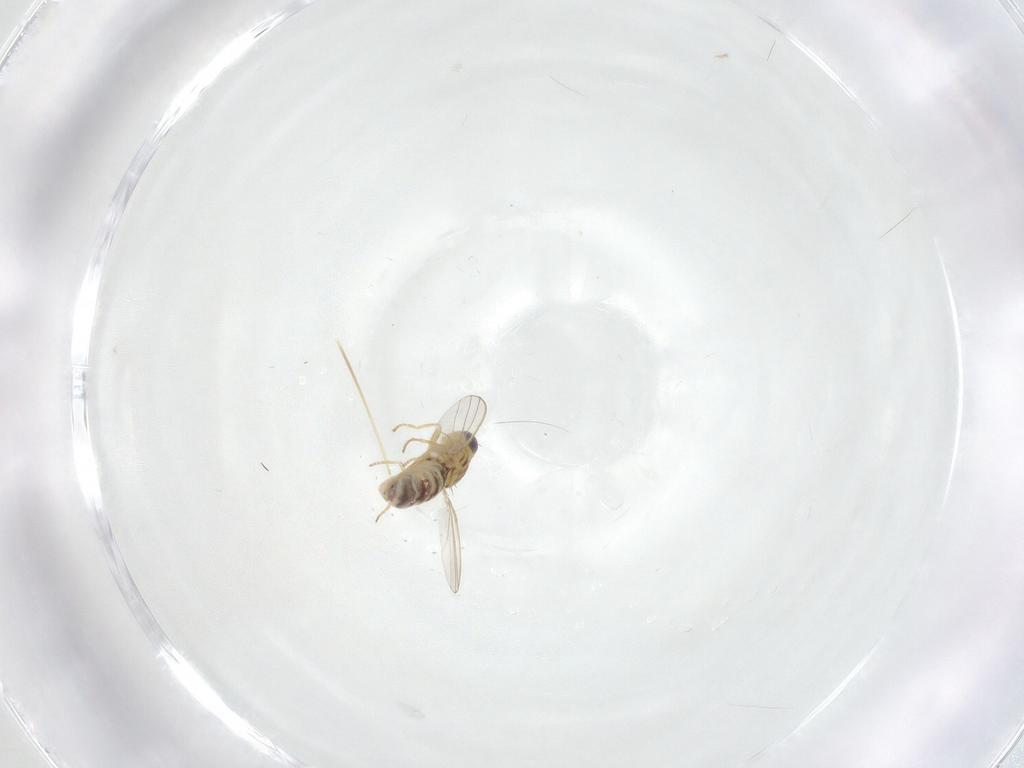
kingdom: Animalia
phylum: Arthropoda
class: Insecta
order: Diptera
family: Chyromyidae
